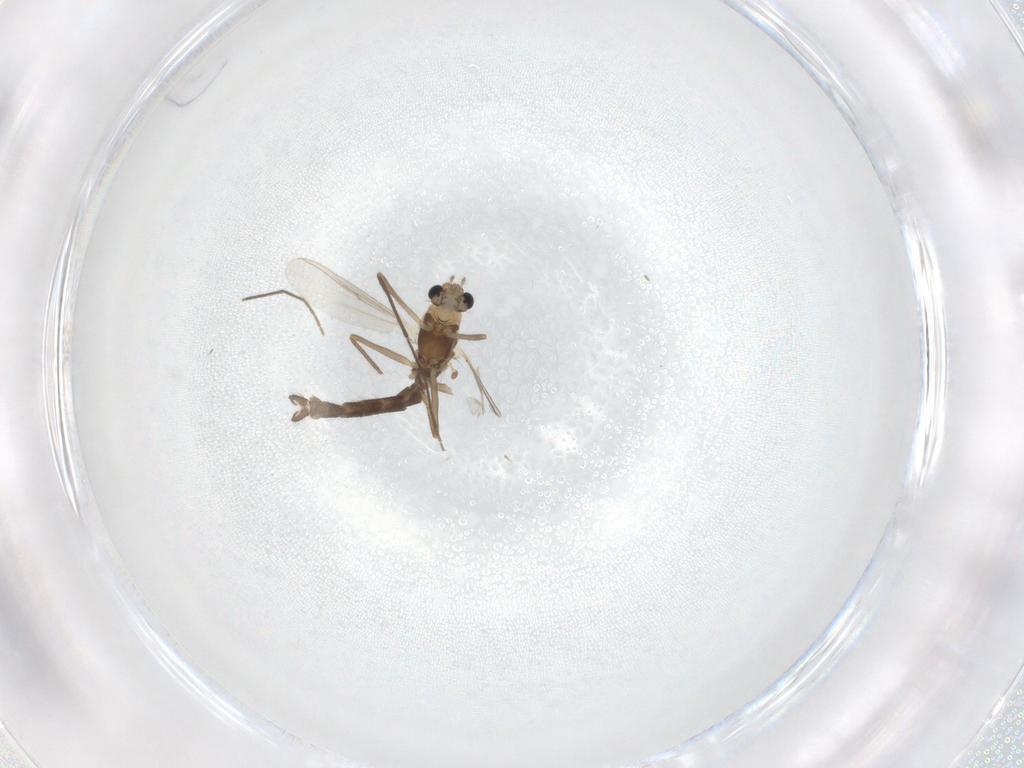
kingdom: Animalia
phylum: Arthropoda
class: Insecta
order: Diptera
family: Chironomidae
